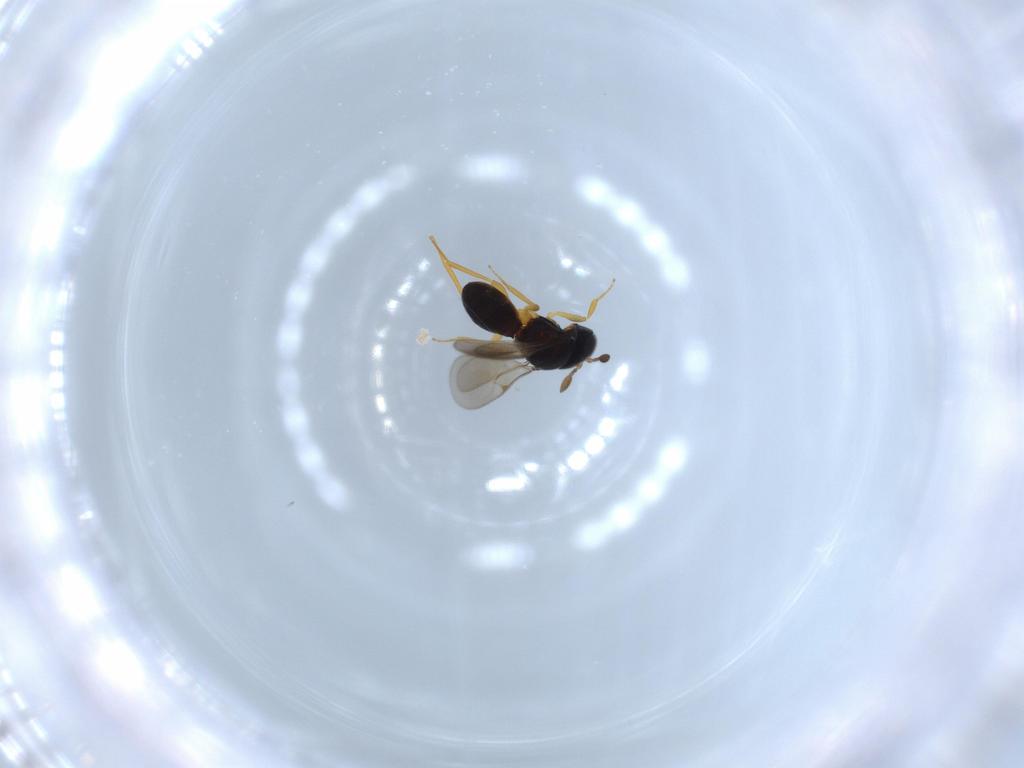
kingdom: Animalia
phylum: Arthropoda
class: Insecta
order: Hymenoptera
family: Scelionidae
